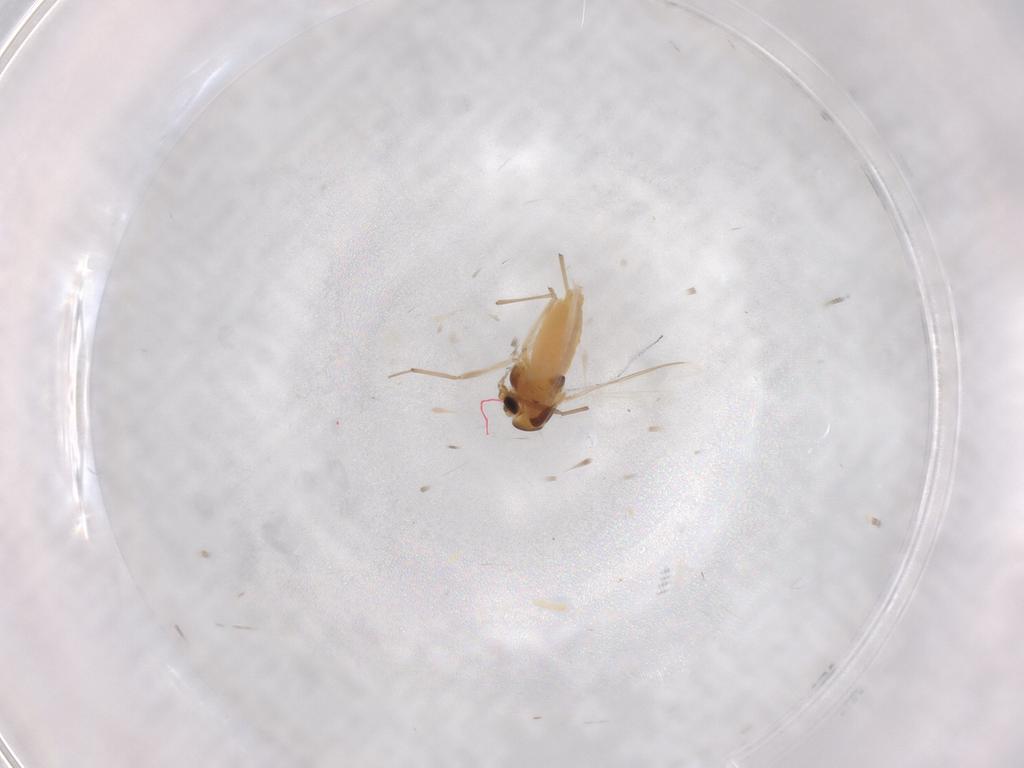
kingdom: Animalia
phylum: Arthropoda
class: Insecta
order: Diptera
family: Chironomidae
